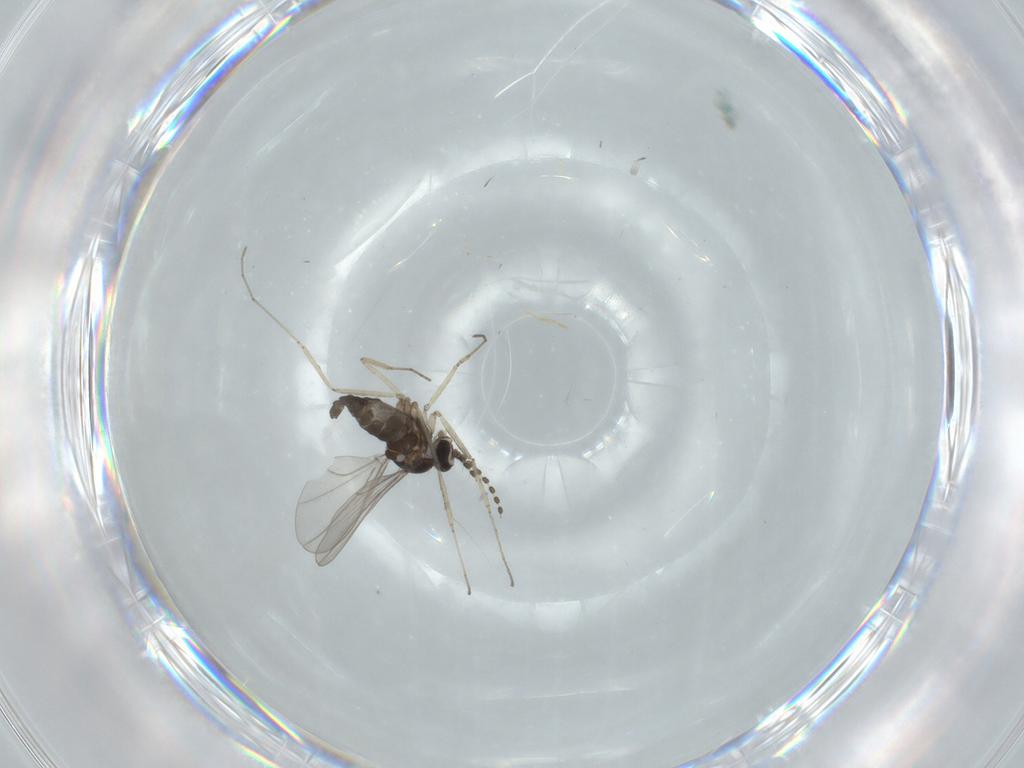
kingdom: Animalia
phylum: Arthropoda
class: Insecta
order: Diptera
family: Cecidomyiidae
